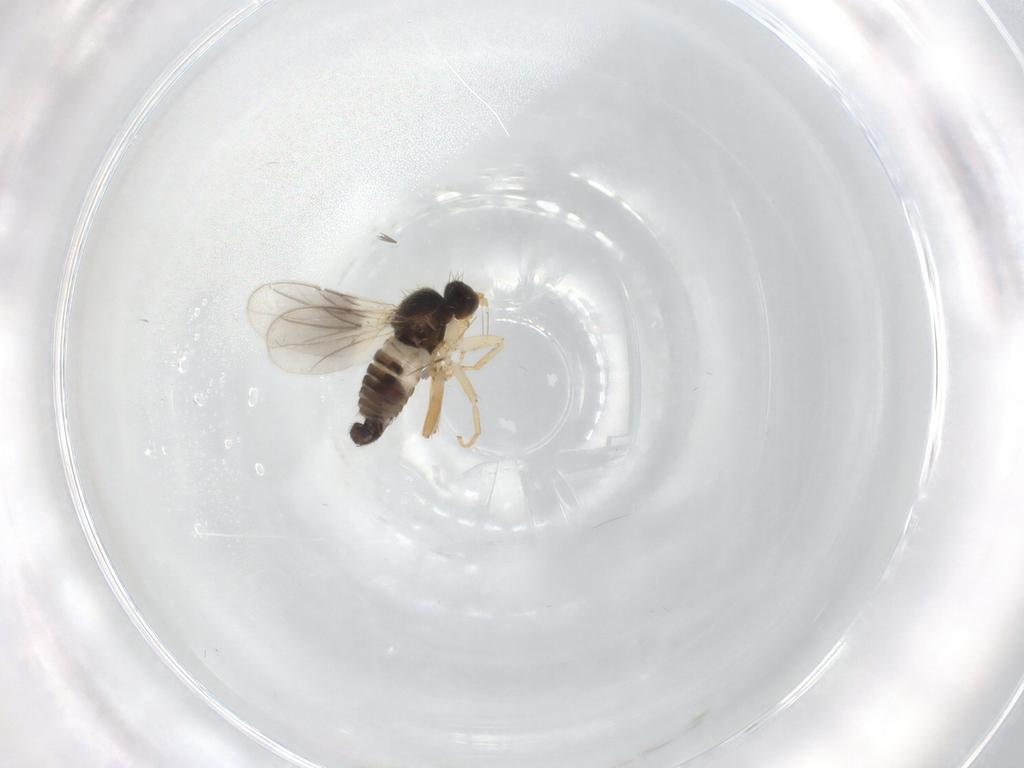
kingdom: Animalia
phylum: Arthropoda
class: Insecta
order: Diptera
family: Hybotidae
